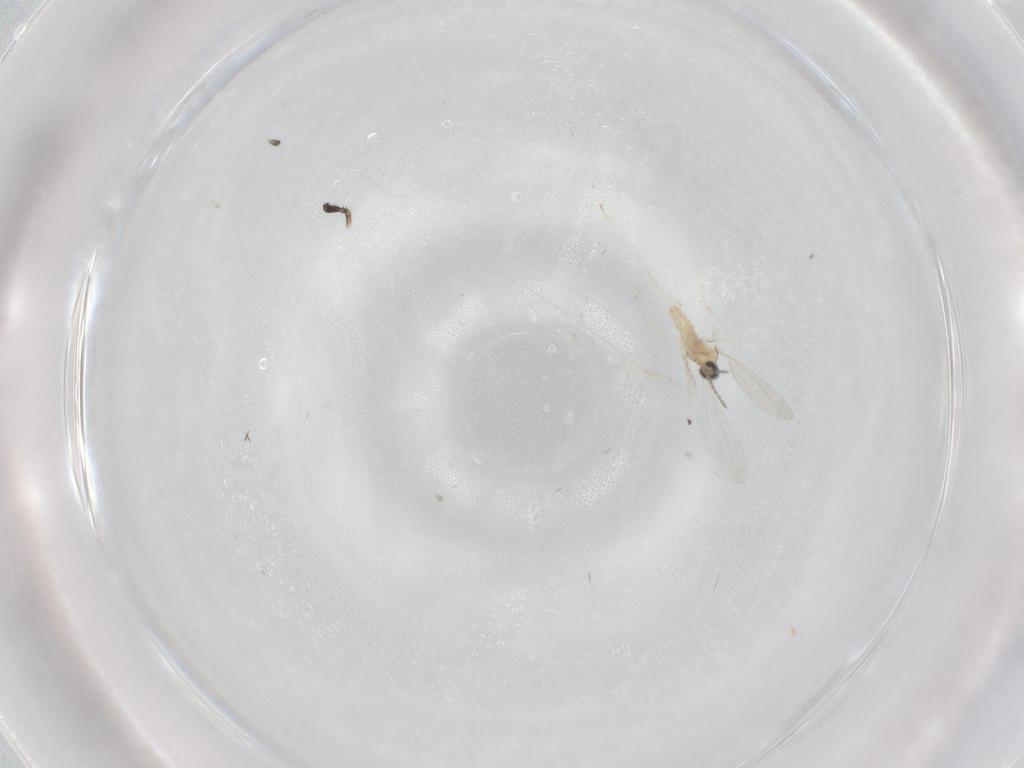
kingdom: Animalia
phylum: Arthropoda
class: Insecta
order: Diptera
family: Cecidomyiidae
